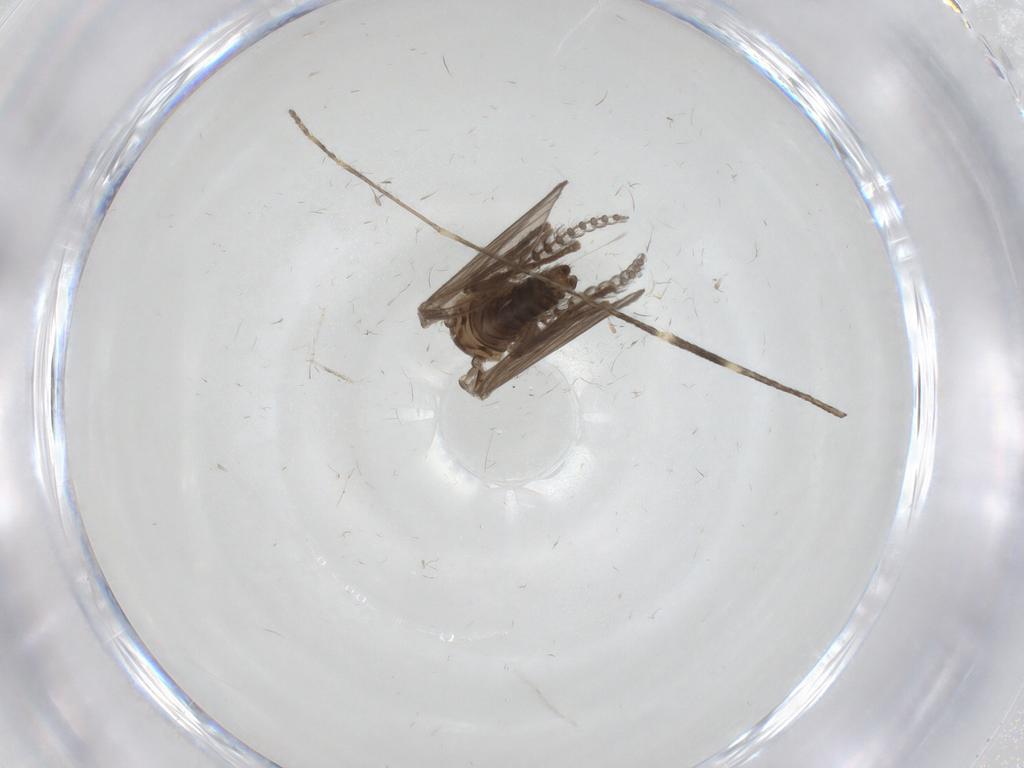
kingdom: Animalia
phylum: Arthropoda
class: Insecta
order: Diptera
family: Psychodidae
